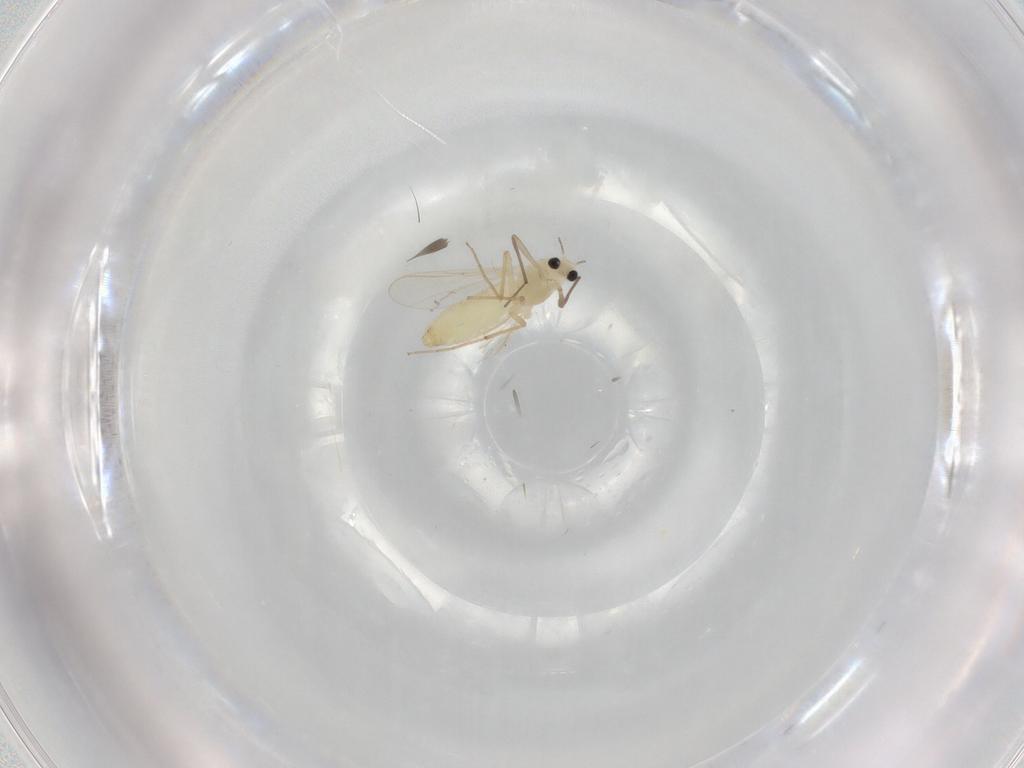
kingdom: Animalia
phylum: Arthropoda
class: Insecta
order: Diptera
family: Chironomidae
